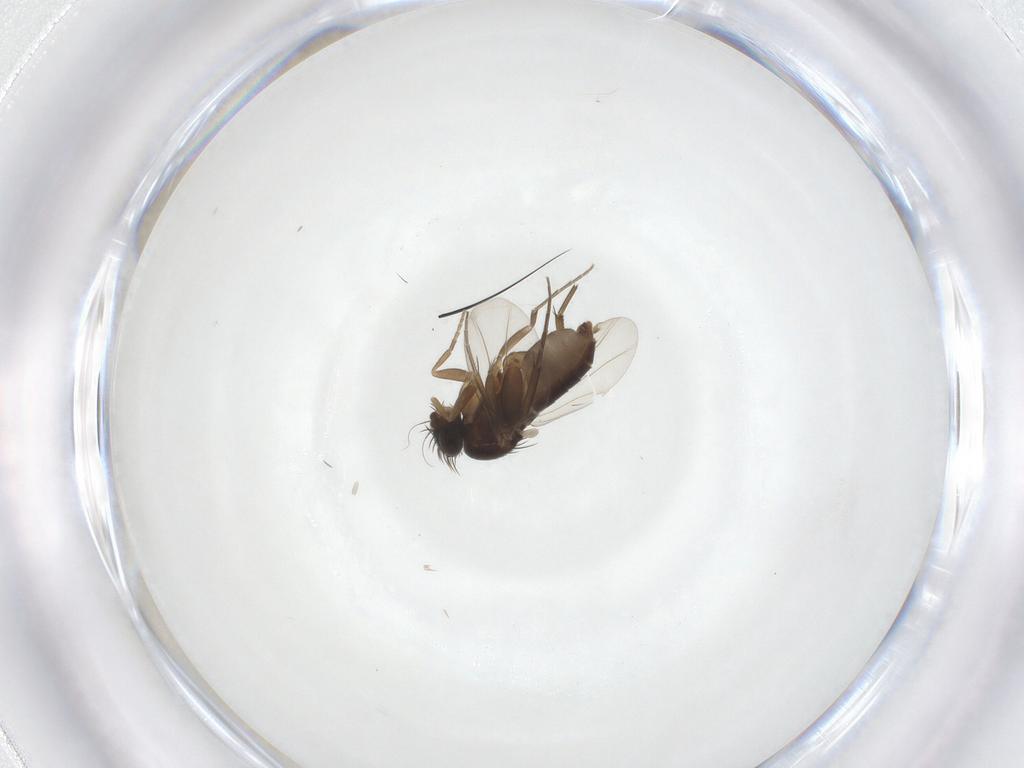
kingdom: Animalia
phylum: Arthropoda
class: Insecta
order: Diptera
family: Phoridae
